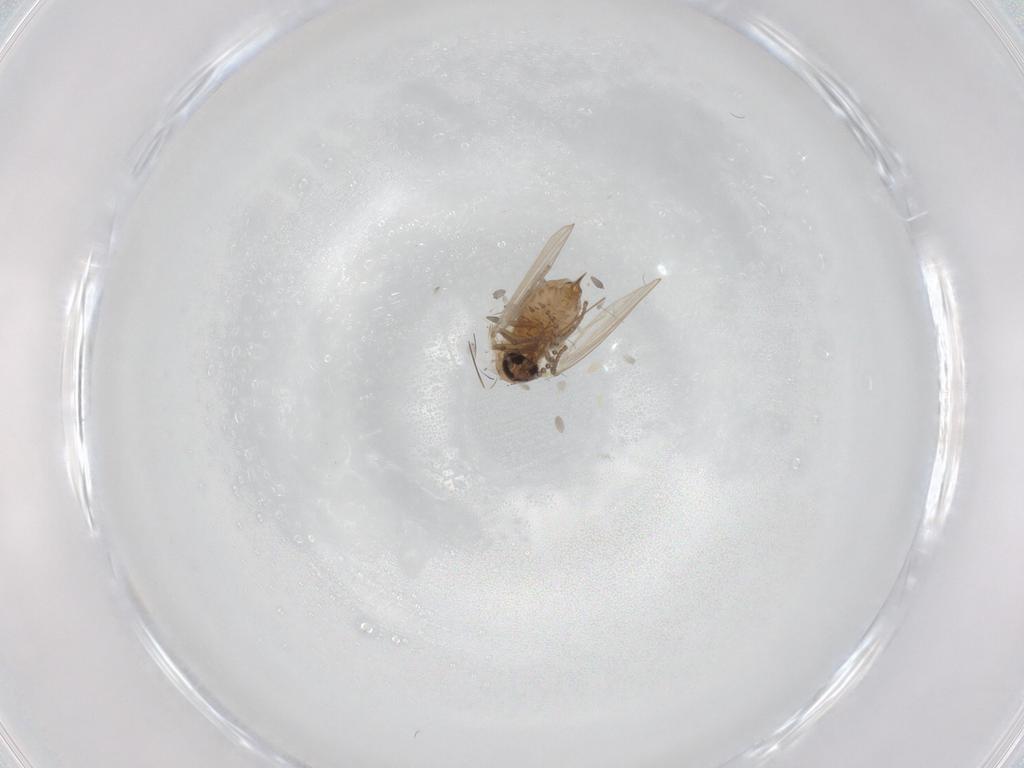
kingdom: Animalia
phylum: Arthropoda
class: Insecta
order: Diptera
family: Psychodidae
